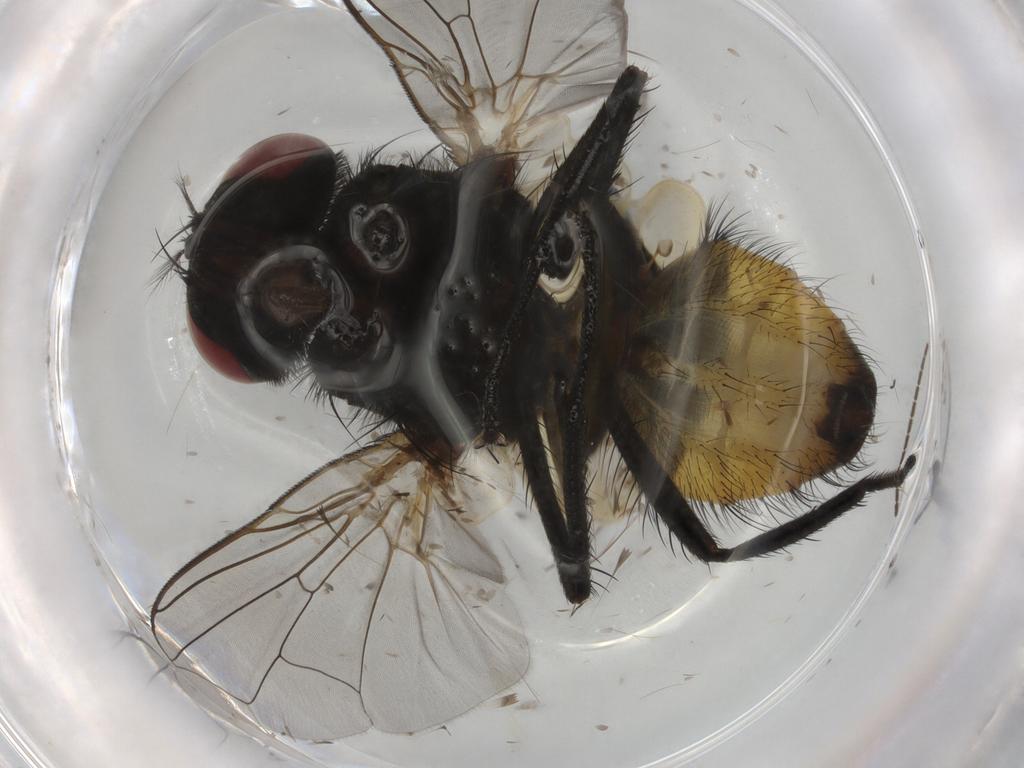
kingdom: Animalia
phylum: Arthropoda
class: Insecta
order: Diptera
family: Muscidae
